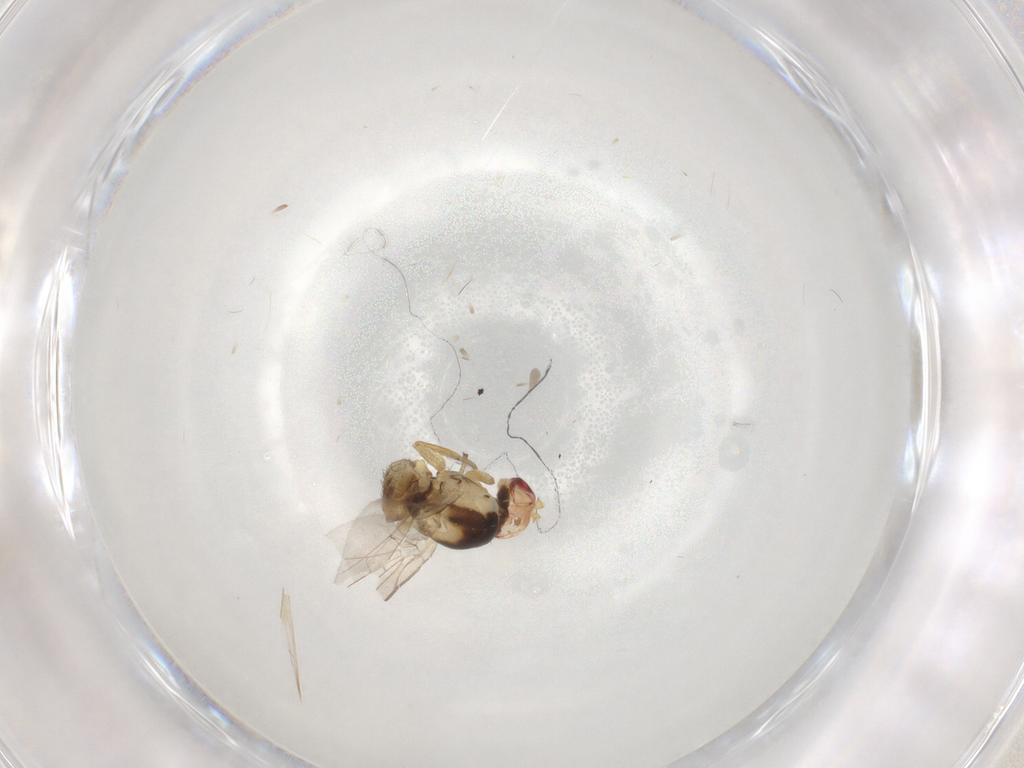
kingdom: Animalia
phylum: Arthropoda
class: Insecta
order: Diptera
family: Agromyzidae
